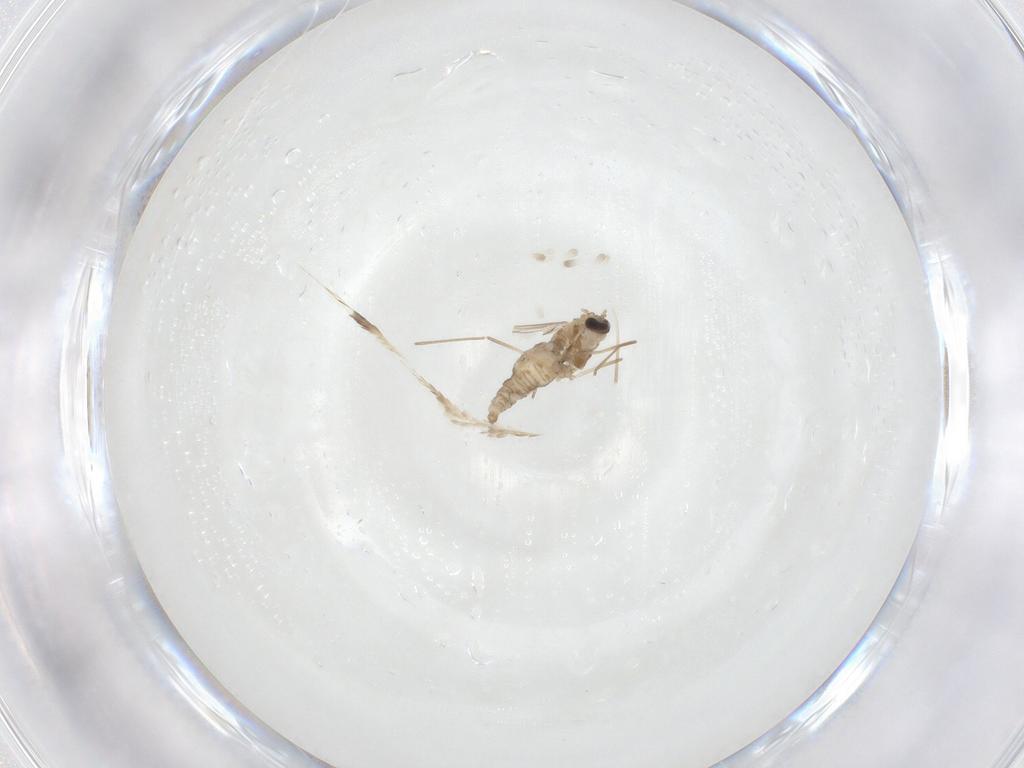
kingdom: Animalia
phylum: Arthropoda
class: Insecta
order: Diptera
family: Cecidomyiidae
